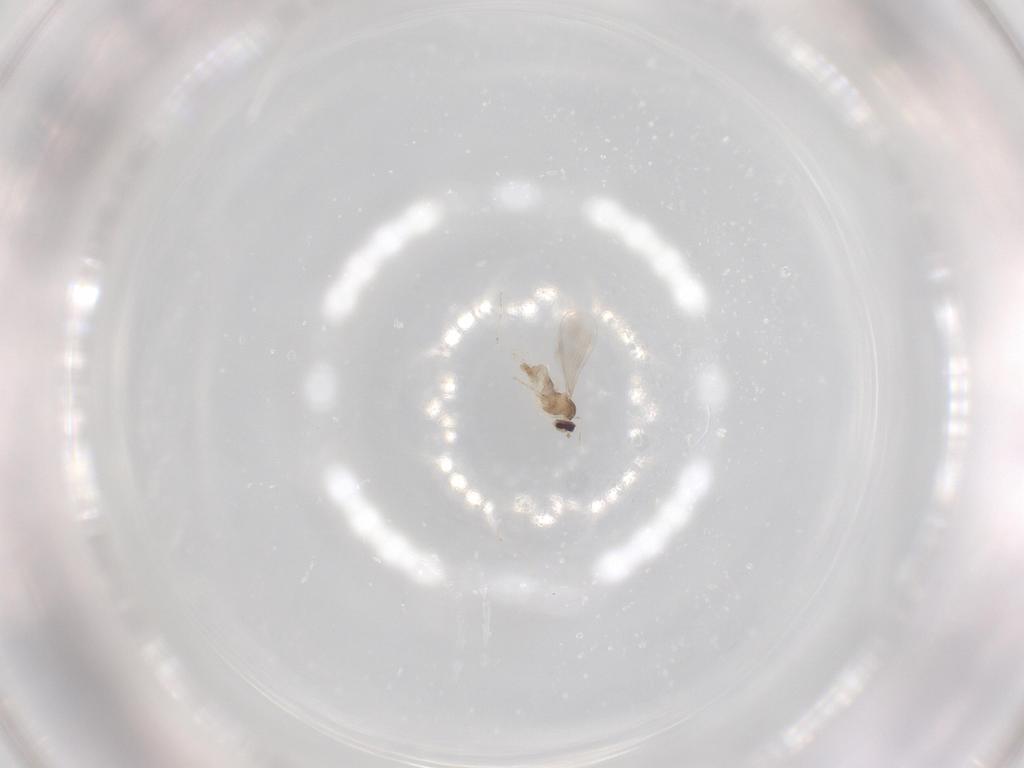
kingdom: Animalia
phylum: Arthropoda
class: Insecta
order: Diptera
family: Cecidomyiidae
